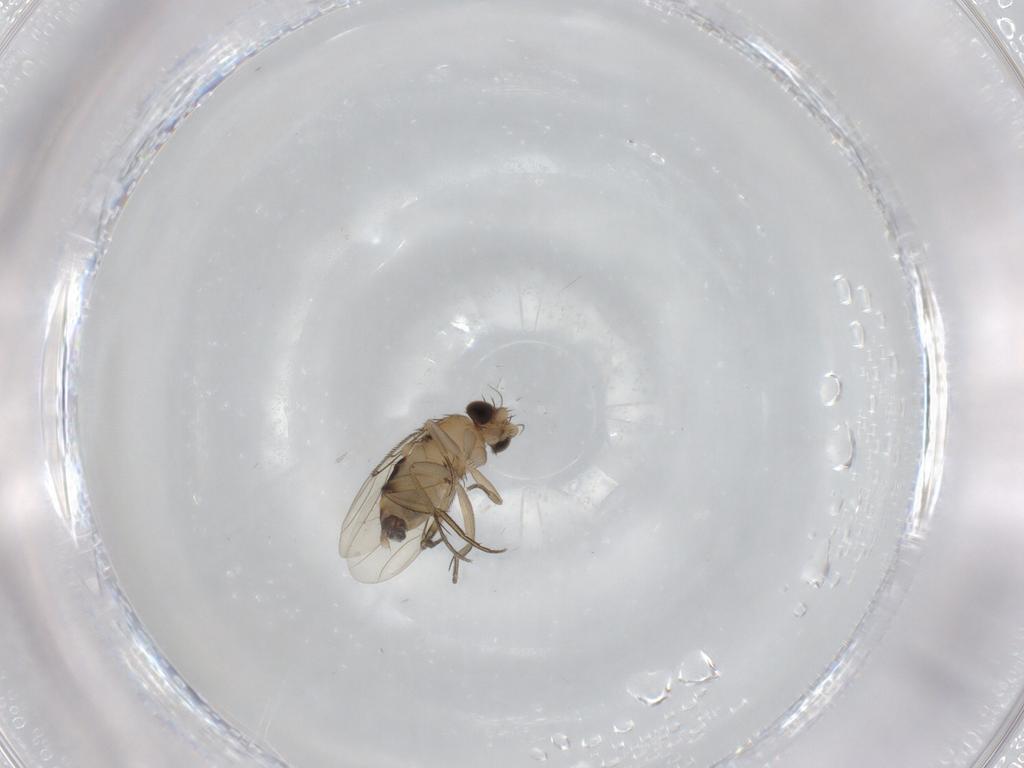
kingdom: Animalia
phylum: Arthropoda
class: Insecta
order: Diptera
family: Phoridae
